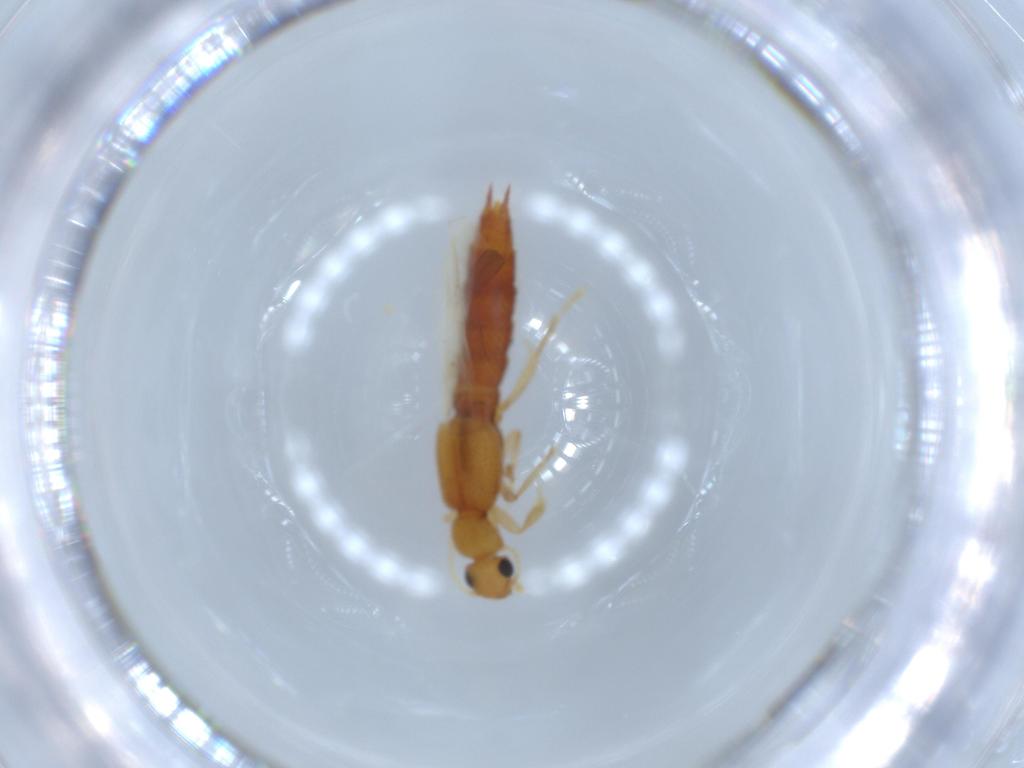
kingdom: Animalia
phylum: Arthropoda
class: Insecta
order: Coleoptera
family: Staphylinidae
